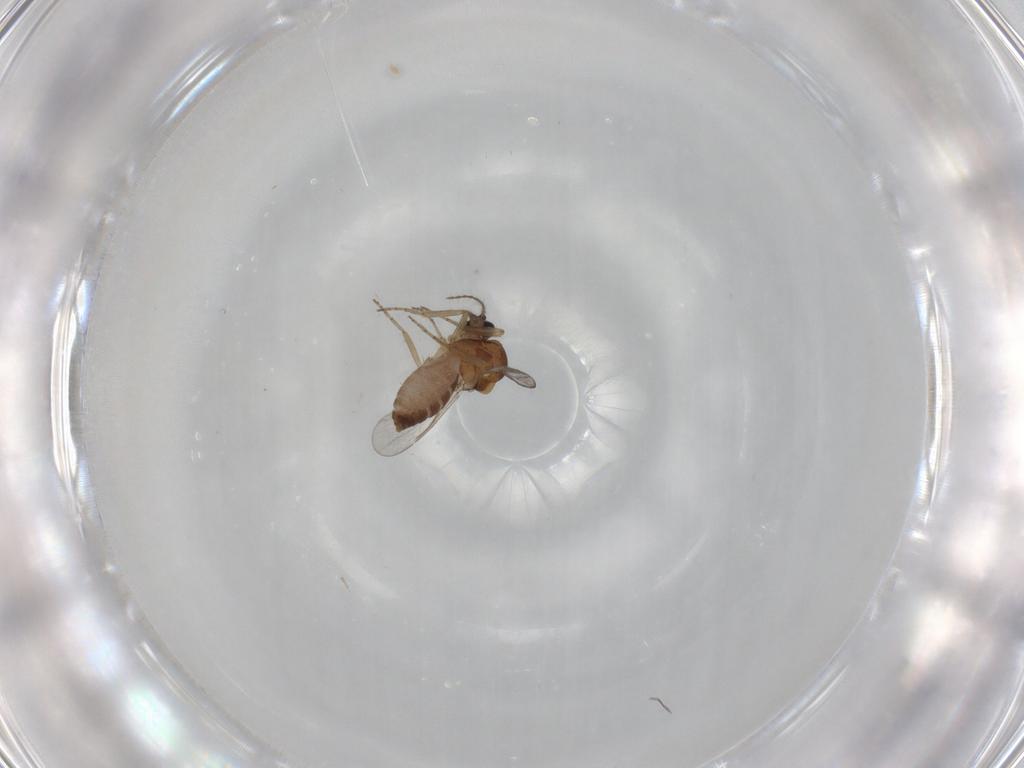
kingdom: Animalia
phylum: Arthropoda
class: Insecta
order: Diptera
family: Ceratopogonidae
